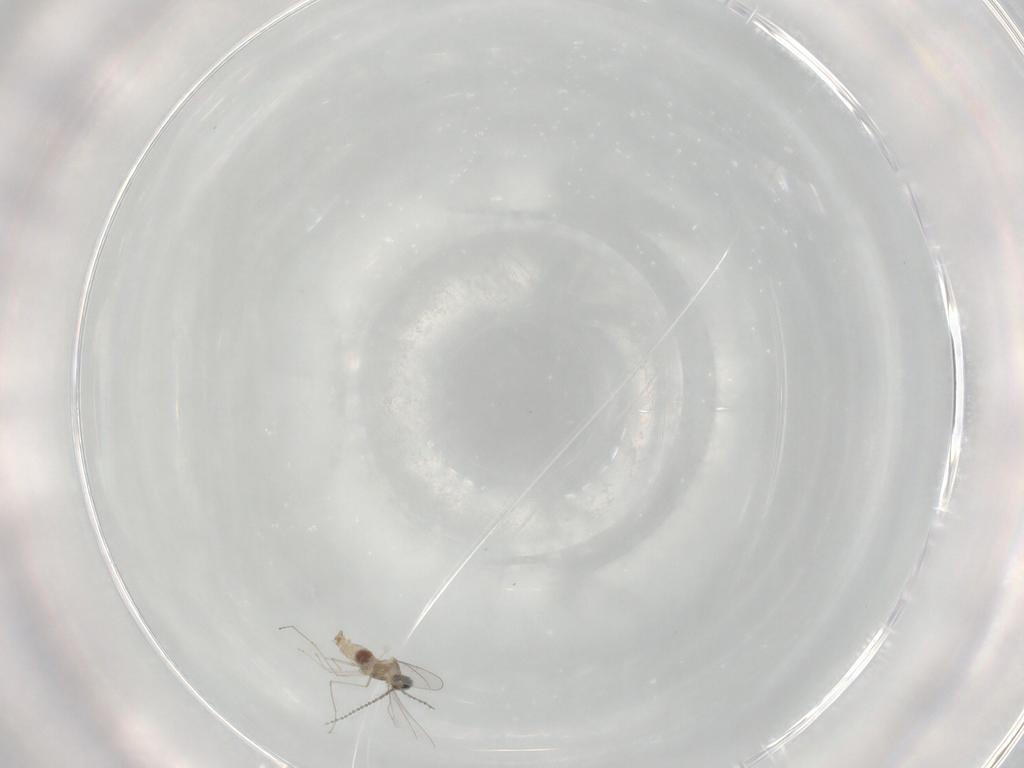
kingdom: Animalia
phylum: Arthropoda
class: Insecta
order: Diptera
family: Cecidomyiidae
